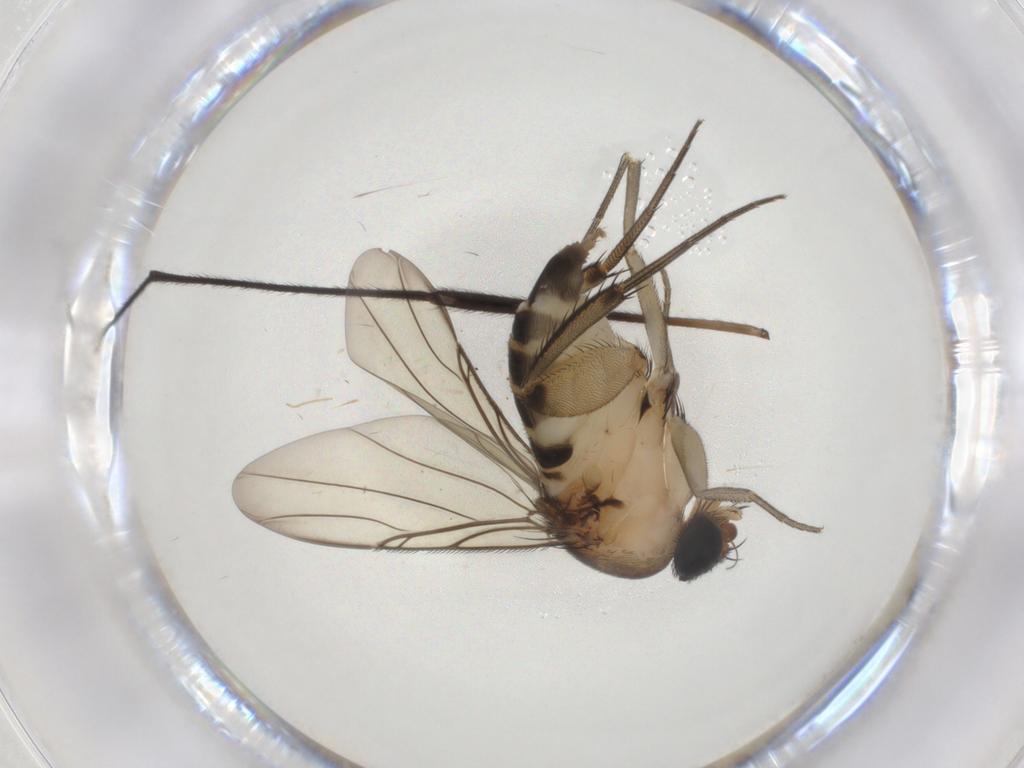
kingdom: Animalia
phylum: Arthropoda
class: Insecta
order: Diptera
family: Phoridae
